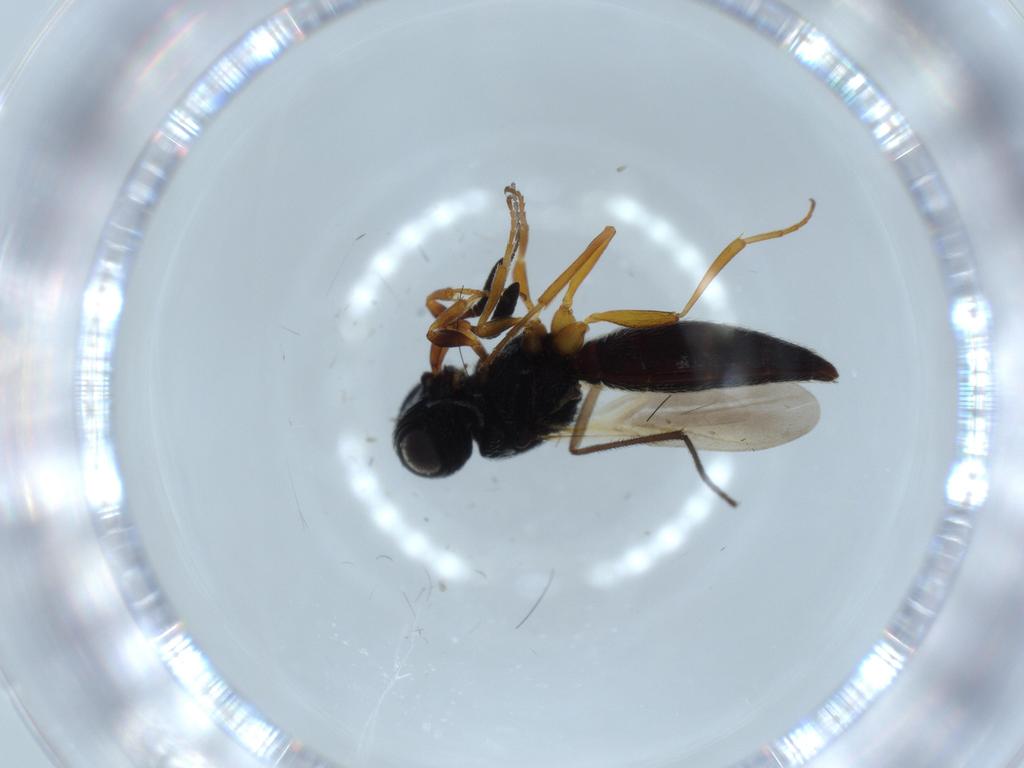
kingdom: Animalia
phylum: Arthropoda
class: Insecta
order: Hymenoptera
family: Scelionidae
